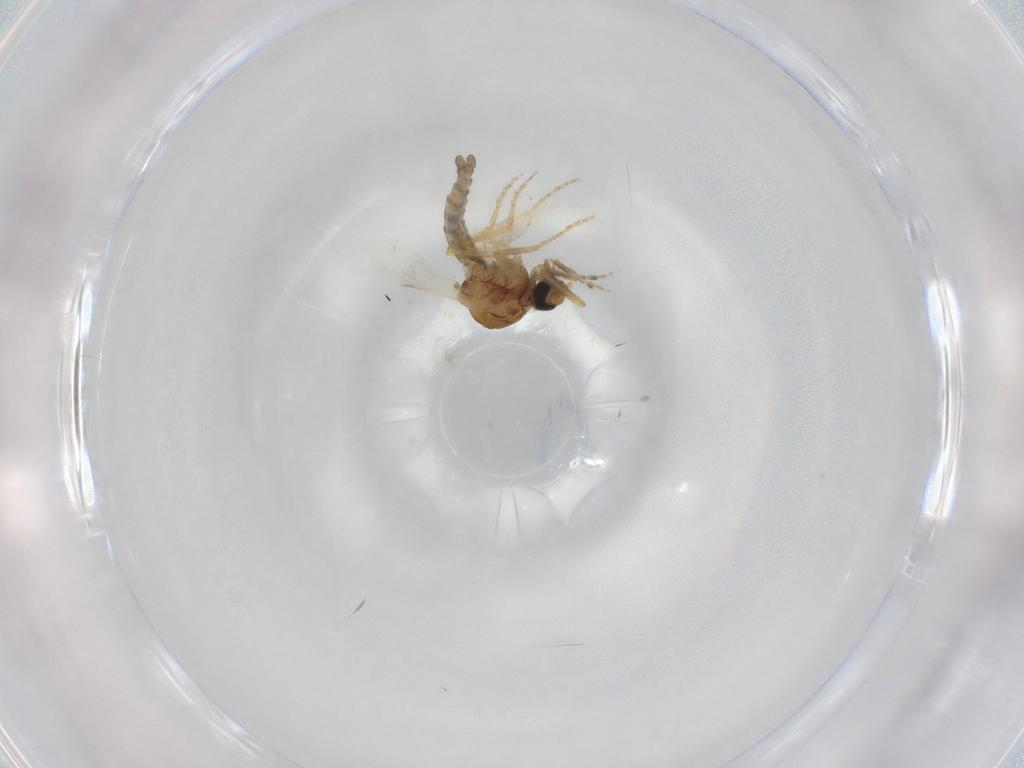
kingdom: Animalia
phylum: Arthropoda
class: Insecta
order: Diptera
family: Ceratopogonidae
